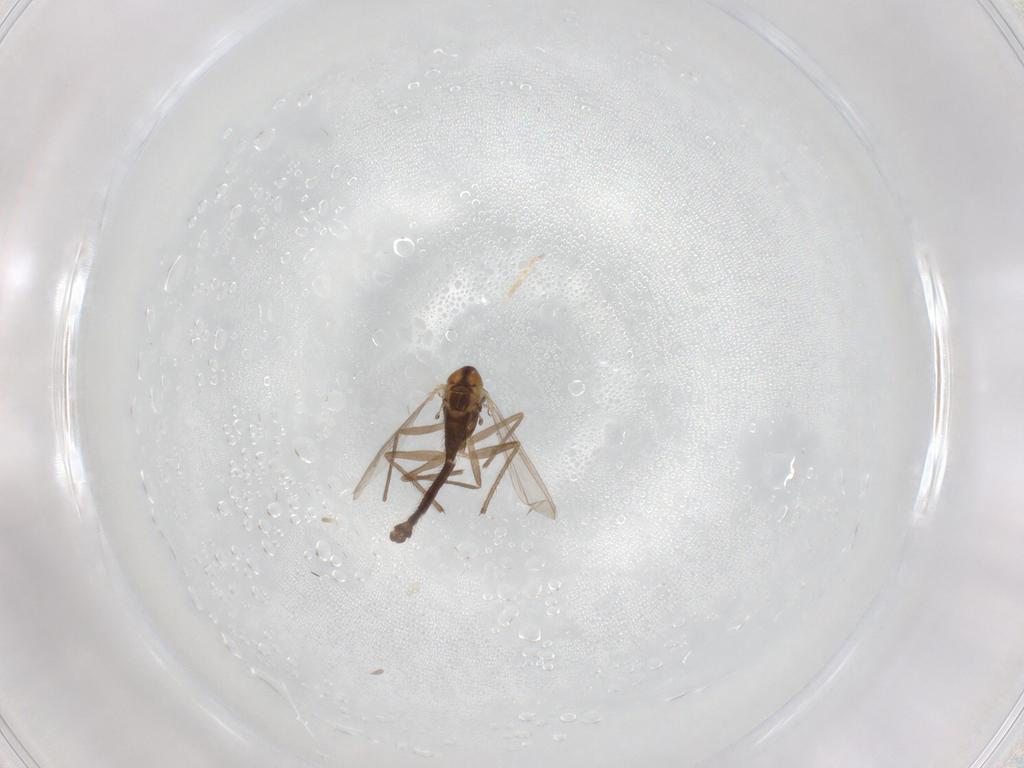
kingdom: Animalia
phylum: Arthropoda
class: Insecta
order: Diptera
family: Chironomidae
